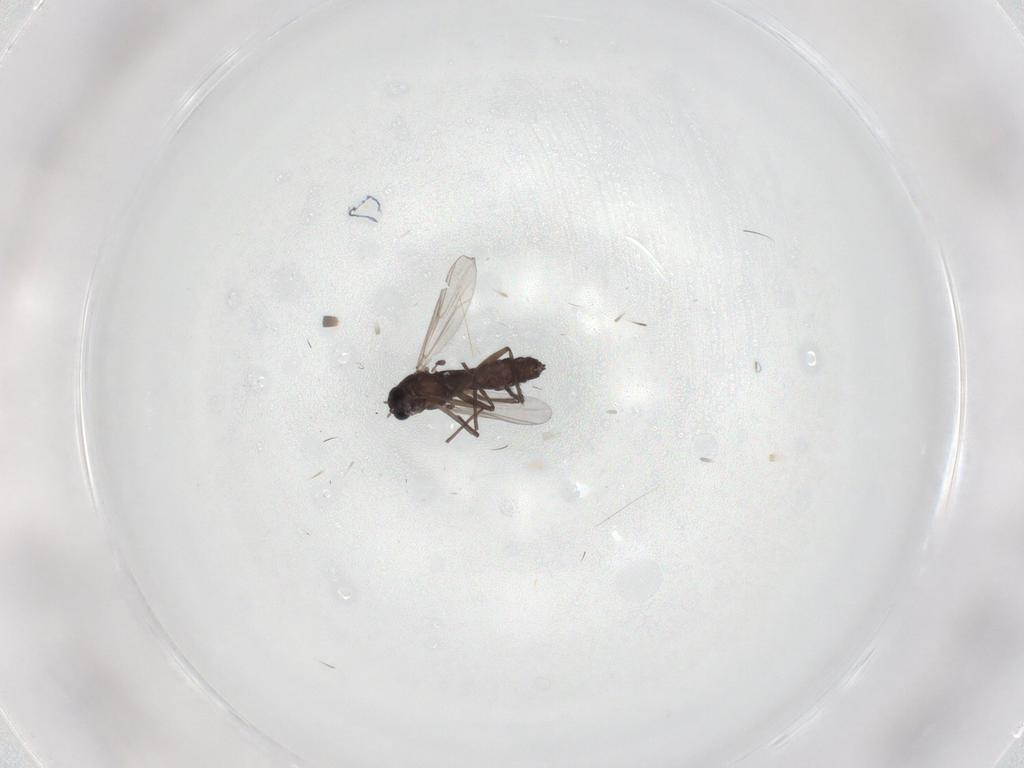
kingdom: Animalia
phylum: Arthropoda
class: Insecta
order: Diptera
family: Chironomidae
